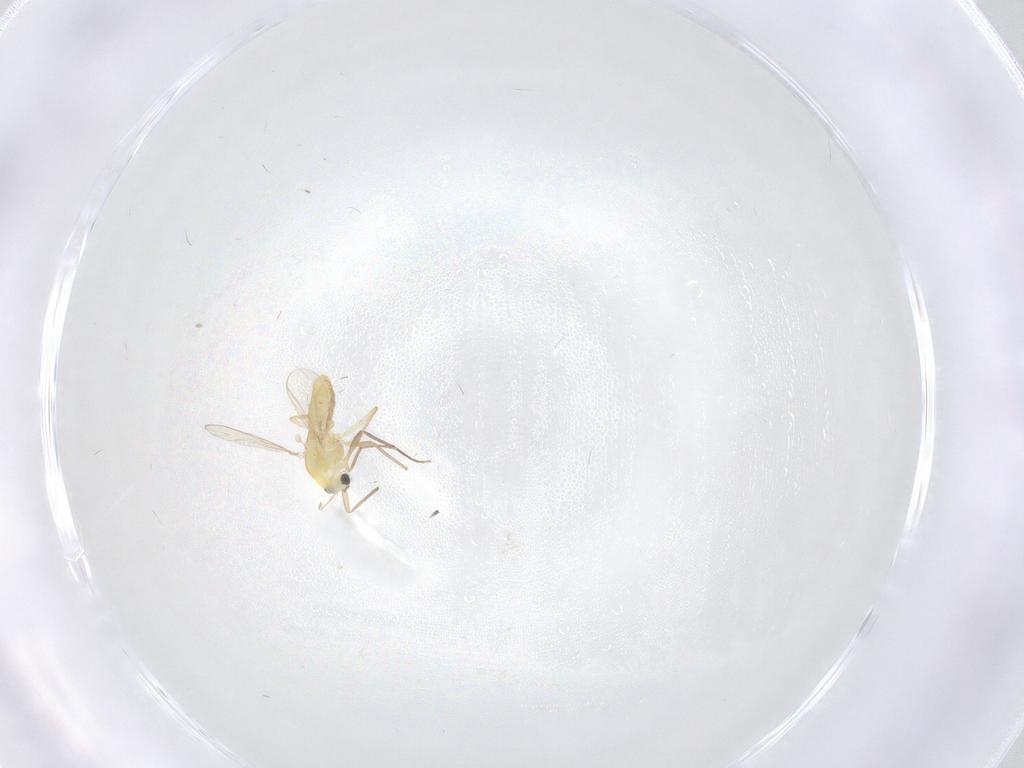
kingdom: Animalia
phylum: Arthropoda
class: Insecta
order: Diptera
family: Chironomidae
